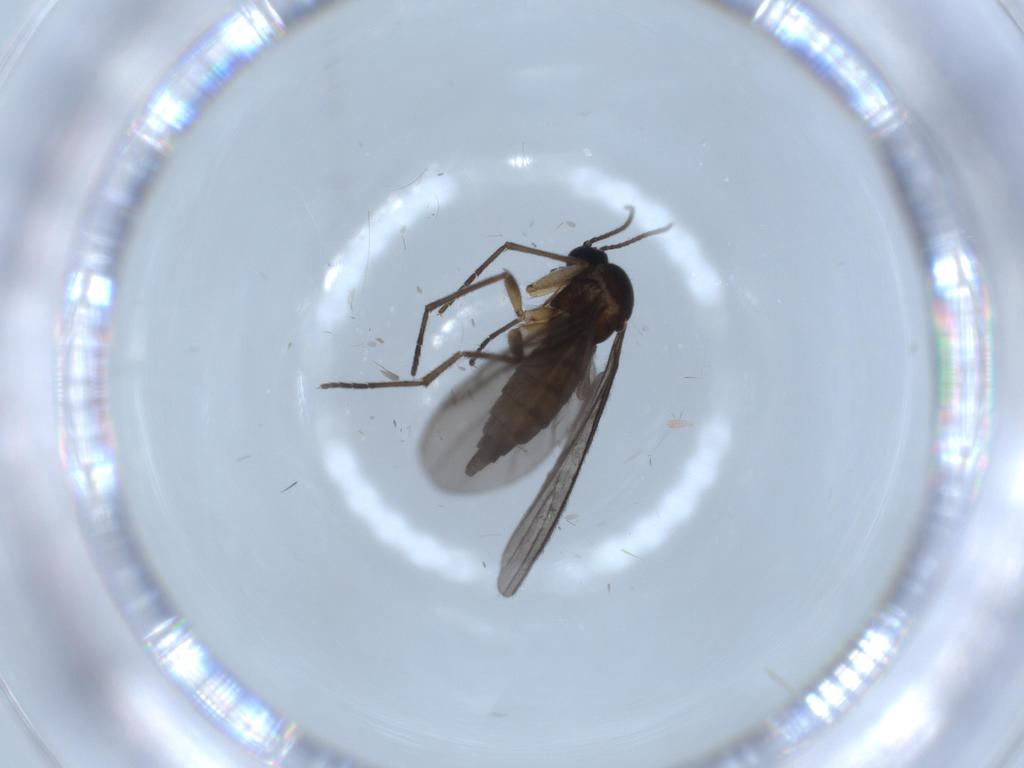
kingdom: Animalia
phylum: Arthropoda
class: Insecta
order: Diptera
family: Sciaridae
